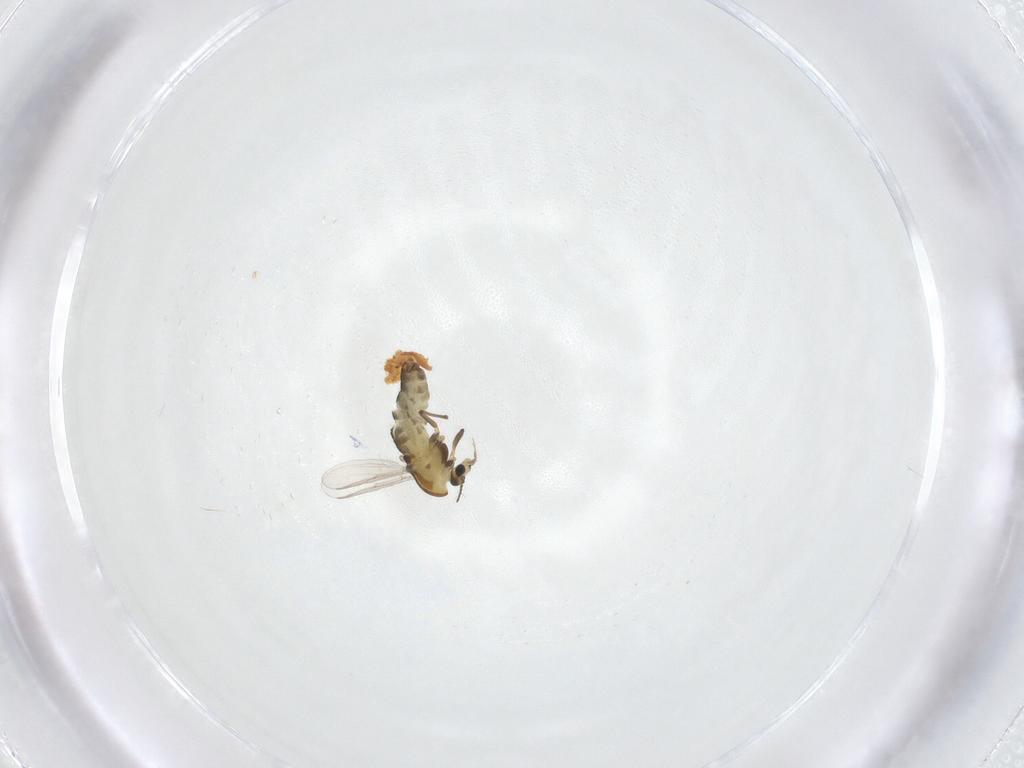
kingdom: Animalia
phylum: Arthropoda
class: Insecta
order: Diptera
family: Chironomidae
